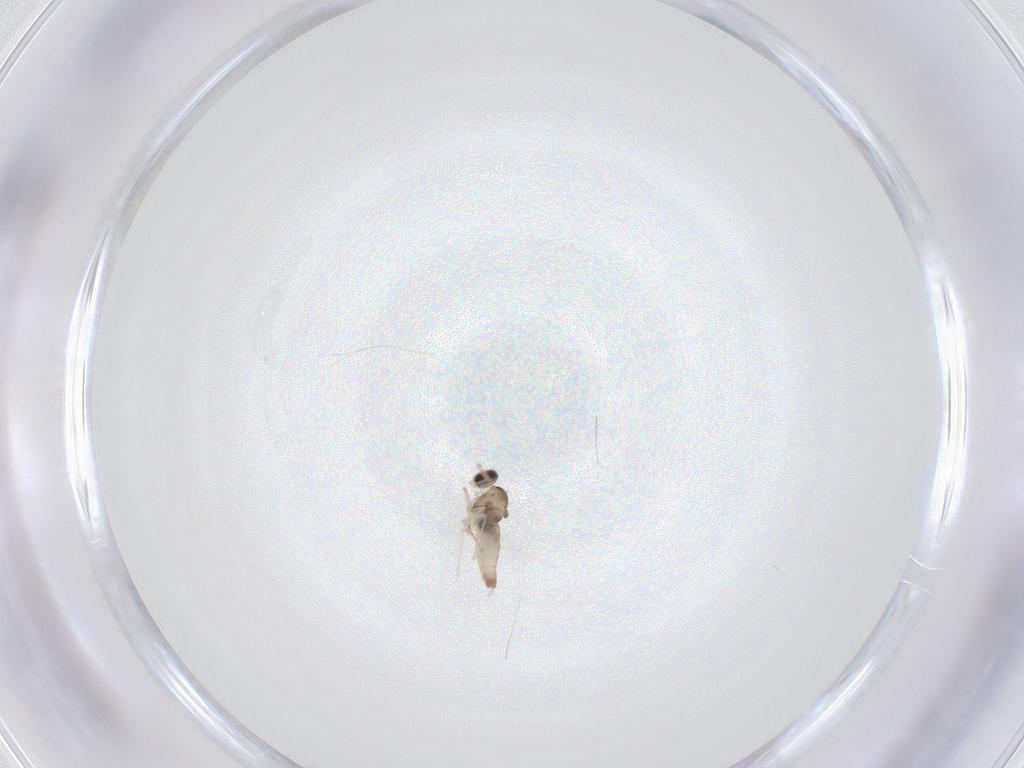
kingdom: Animalia
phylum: Arthropoda
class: Insecta
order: Diptera
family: Cecidomyiidae
